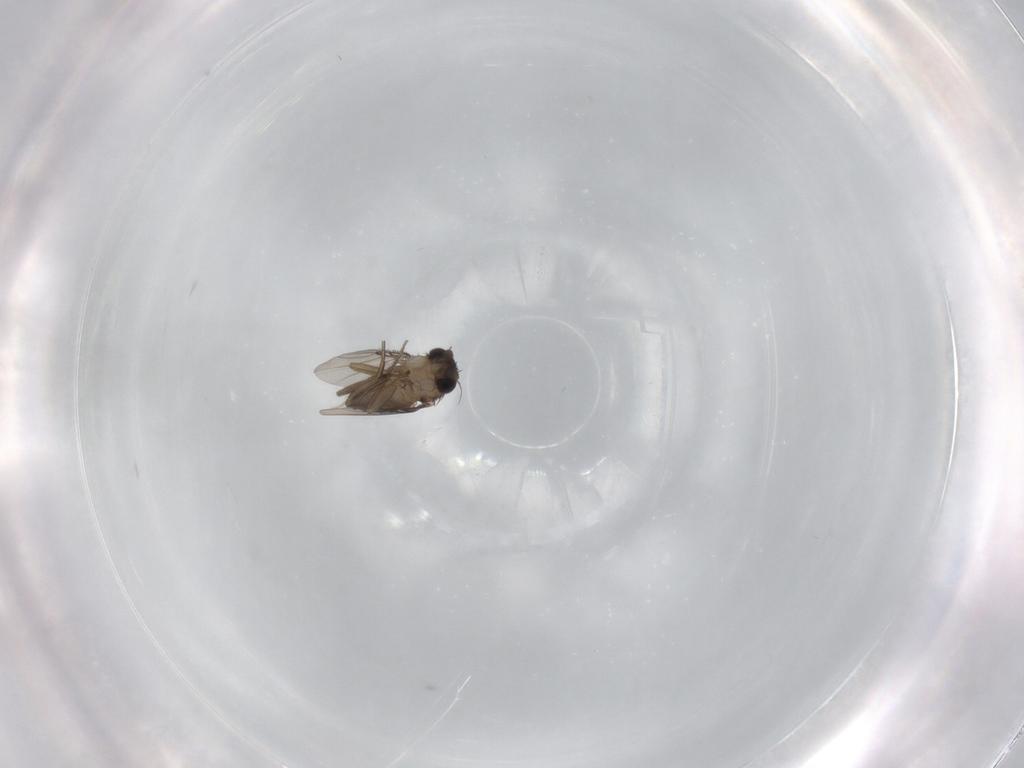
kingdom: Animalia
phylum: Arthropoda
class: Insecta
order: Diptera
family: Phoridae
